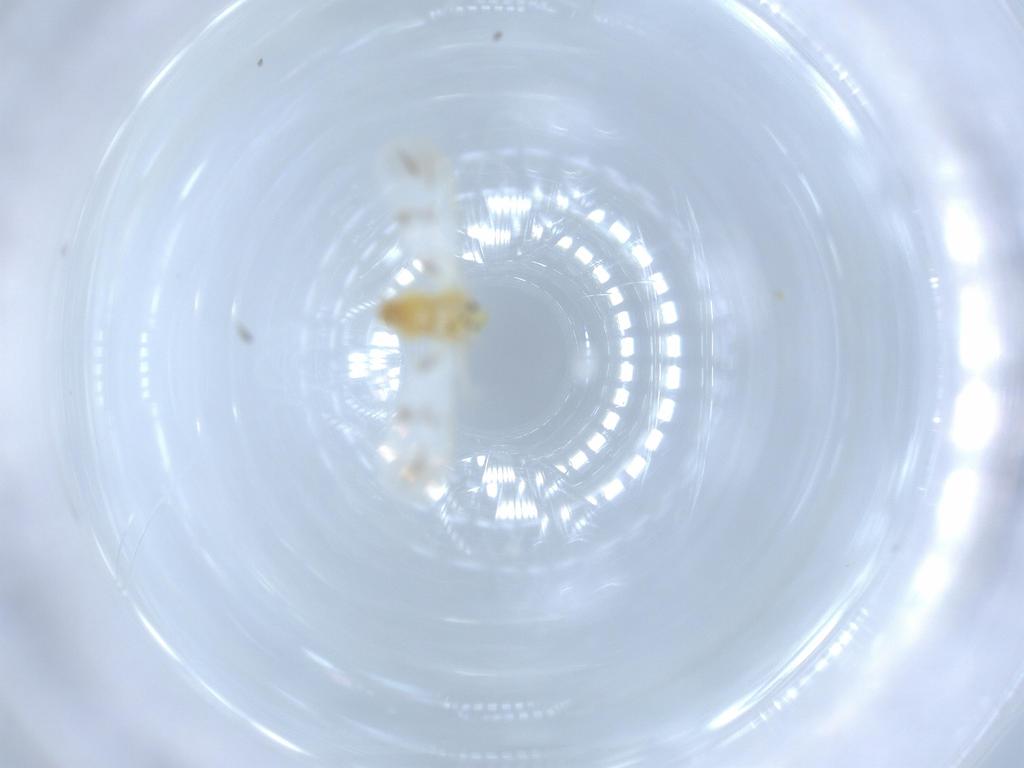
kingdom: Animalia
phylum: Arthropoda
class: Insecta
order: Hemiptera
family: Aleyrodidae
